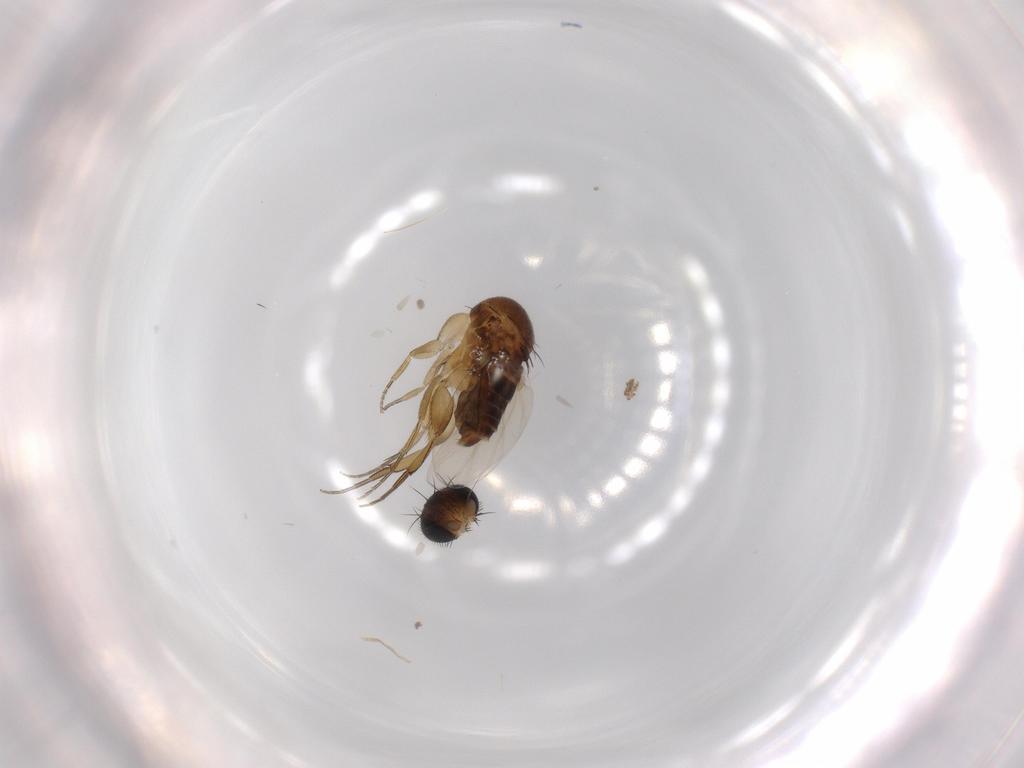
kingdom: Animalia
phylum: Arthropoda
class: Insecta
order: Diptera
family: Phoridae
